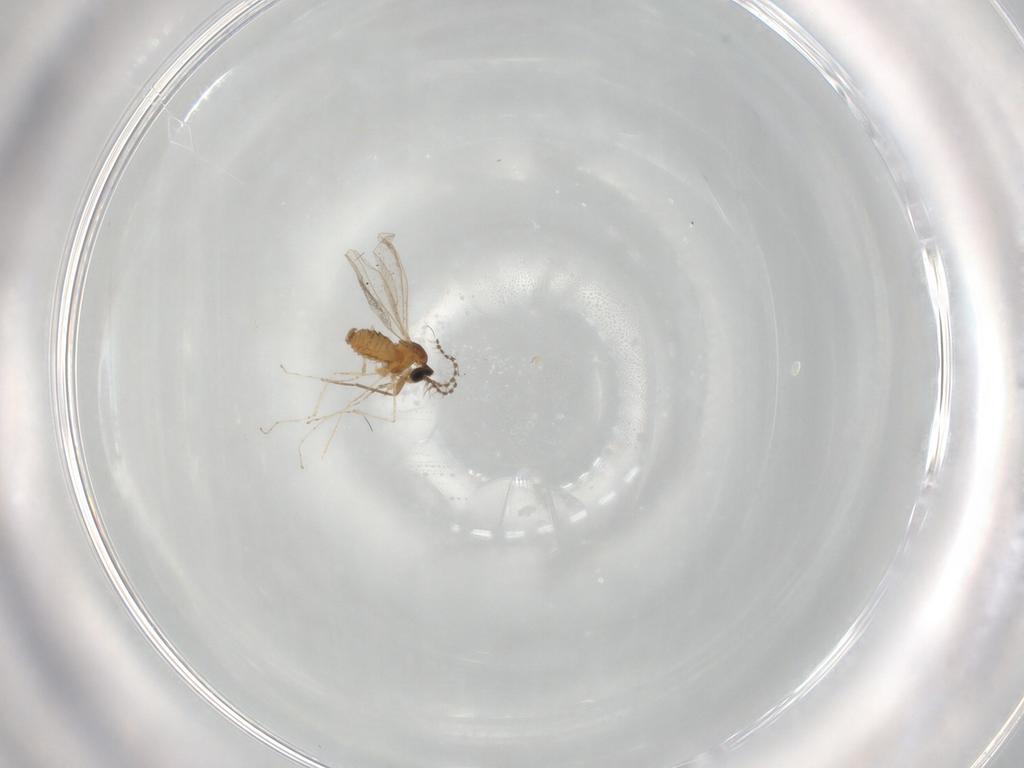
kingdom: Animalia
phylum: Arthropoda
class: Insecta
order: Diptera
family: Cecidomyiidae
